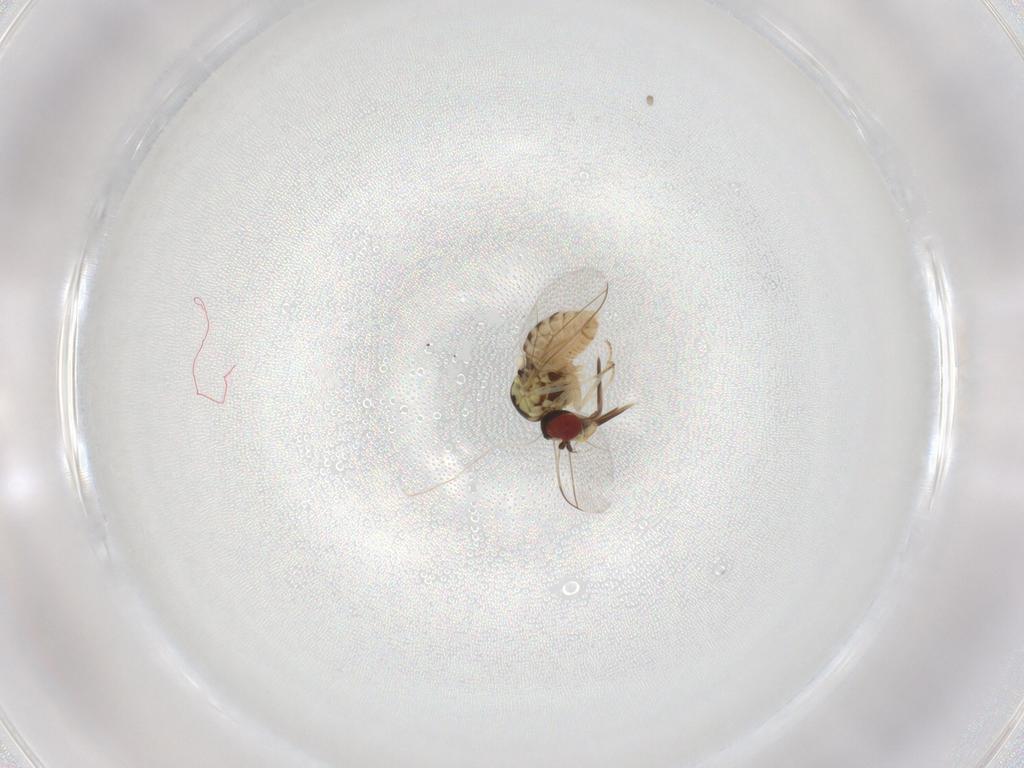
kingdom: Animalia
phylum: Arthropoda
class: Insecta
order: Diptera
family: Bombyliidae
